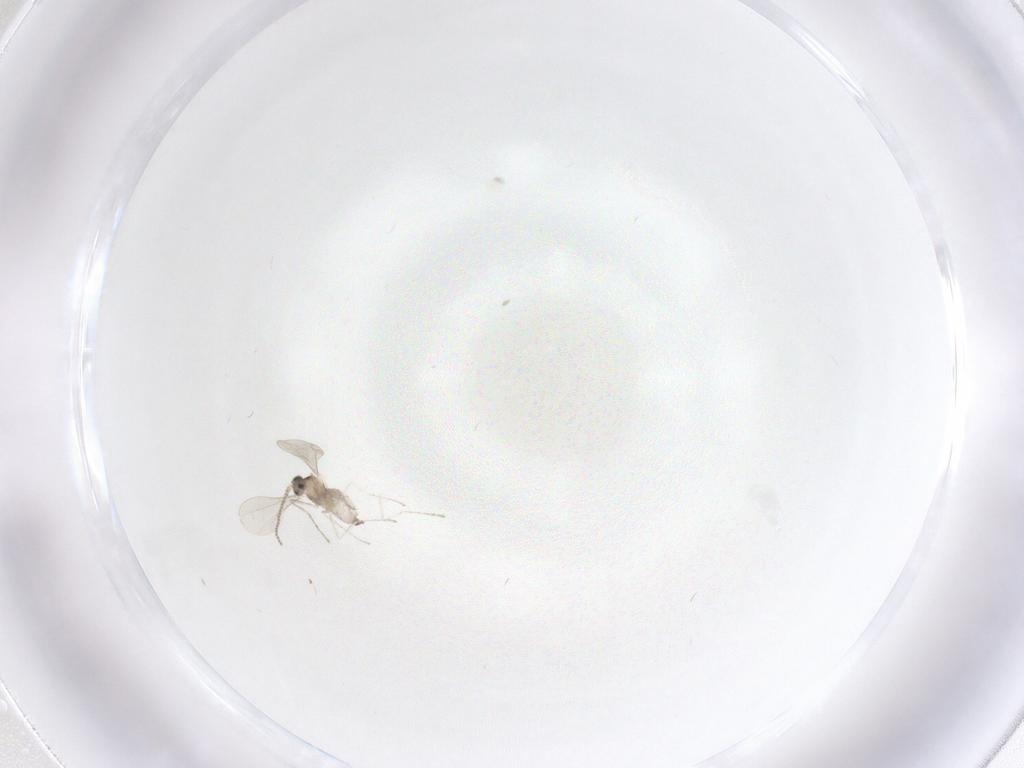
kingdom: Animalia
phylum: Arthropoda
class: Insecta
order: Diptera
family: Cecidomyiidae
